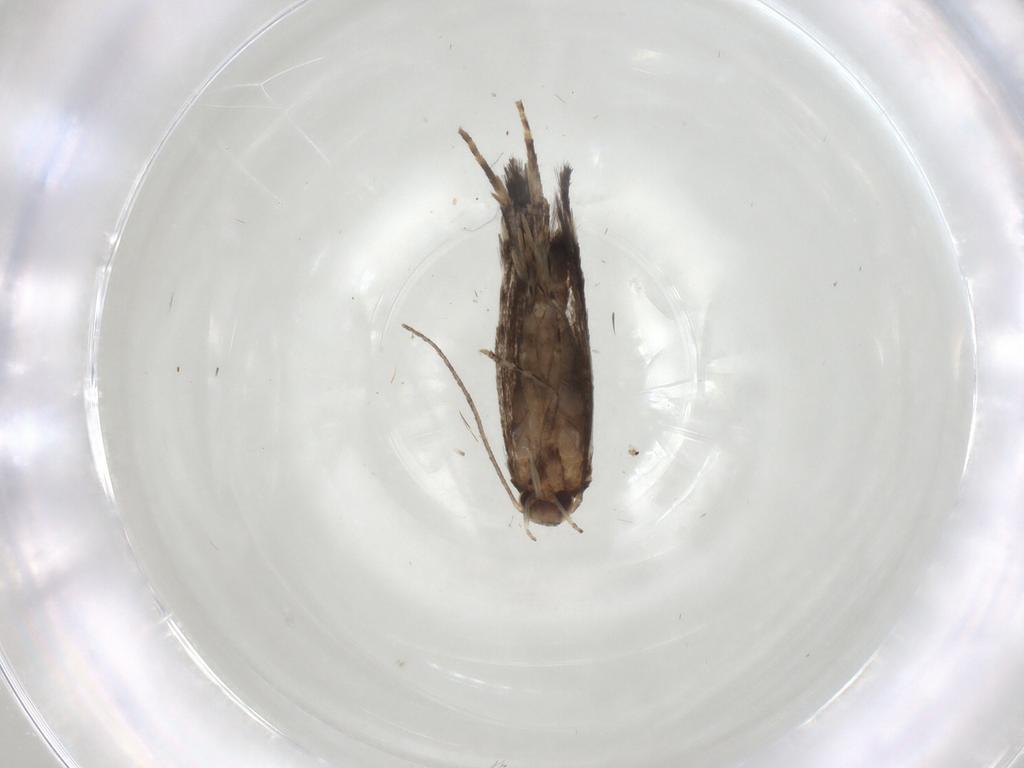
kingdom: Animalia
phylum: Arthropoda
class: Insecta
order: Lepidoptera
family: Elachistidae
